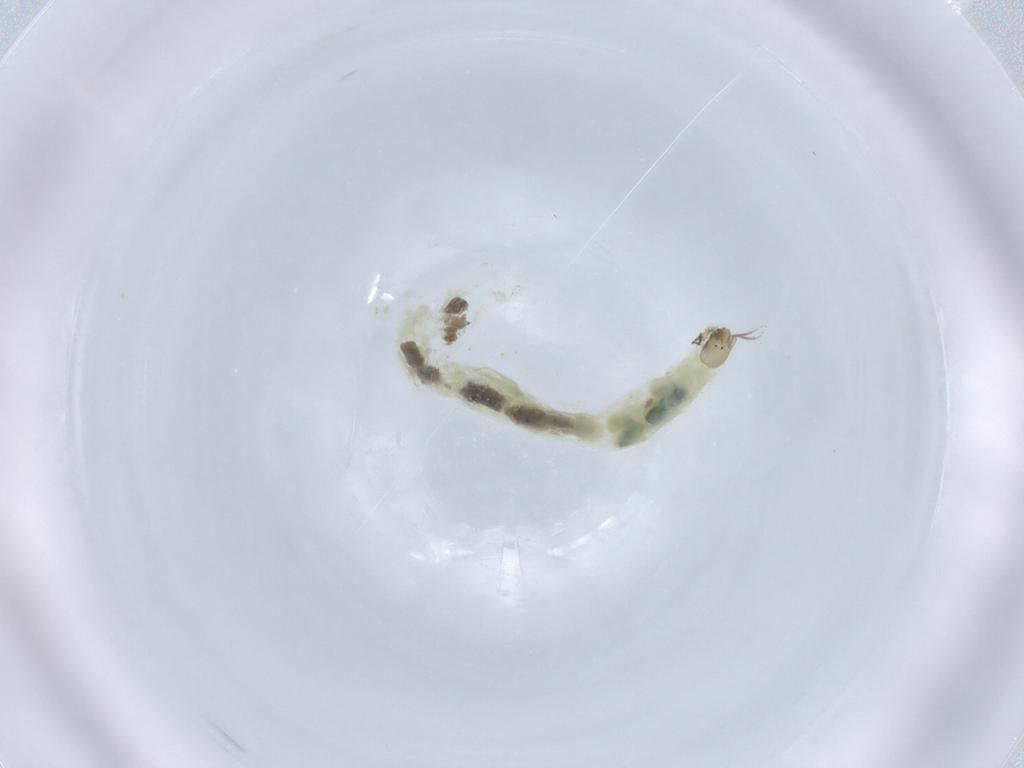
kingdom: Animalia
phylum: Arthropoda
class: Insecta
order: Diptera
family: Chironomidae
